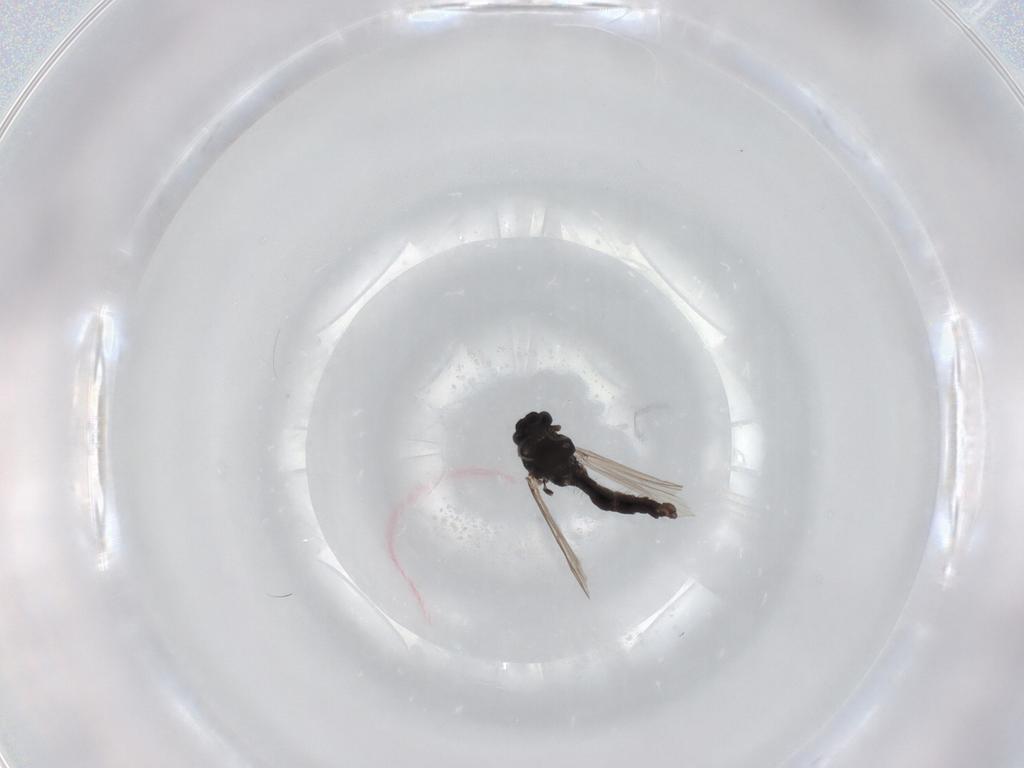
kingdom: Animalia
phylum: Arthropoda
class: Insecta
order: Diptera
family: Chironomidae
